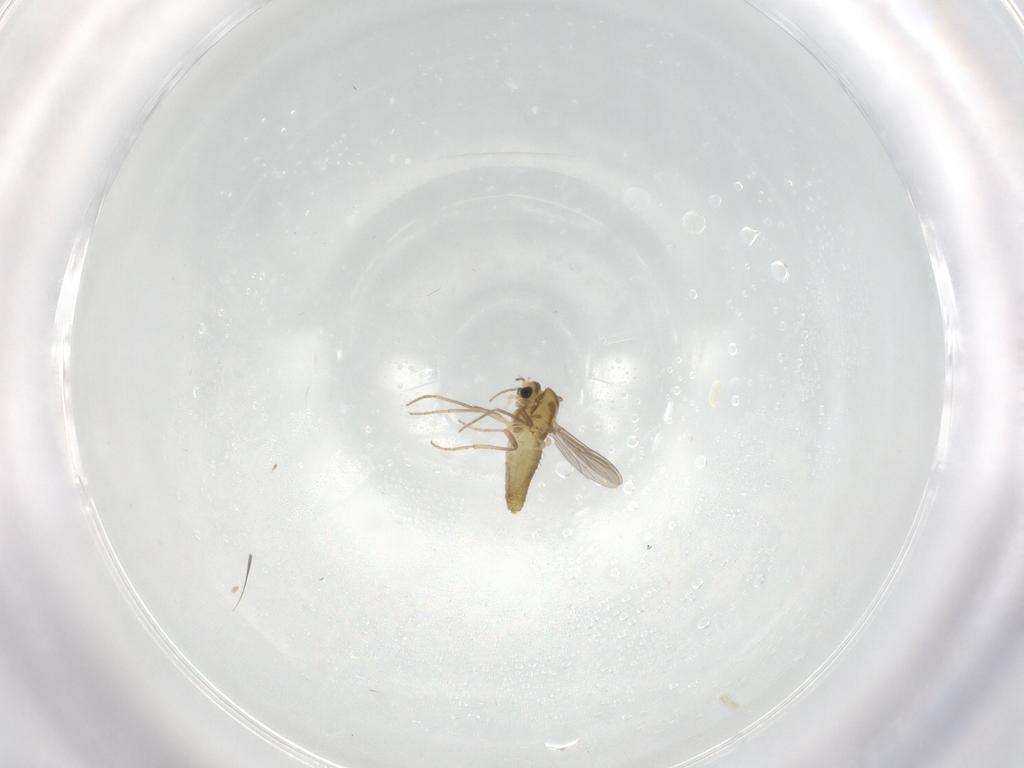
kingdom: Animalia
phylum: Arthropoda
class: Insecta
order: Diptera
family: Chironomidae
